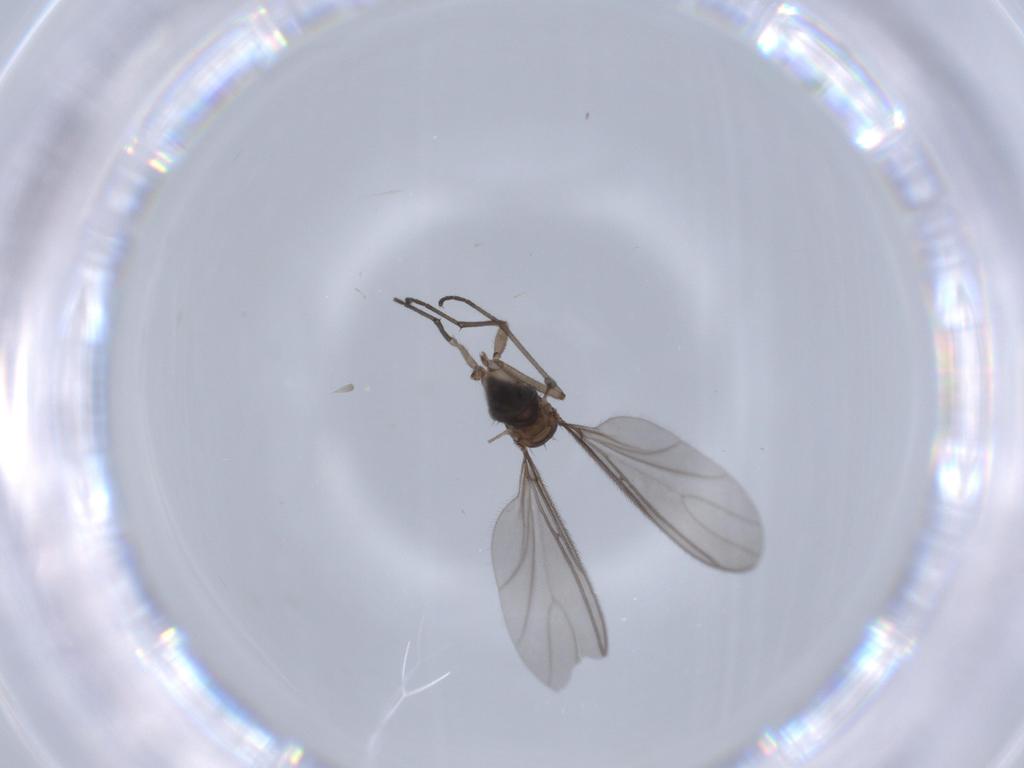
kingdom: Animalia
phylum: Arthropoda
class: Insecta
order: Diptera
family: Sciaridae
